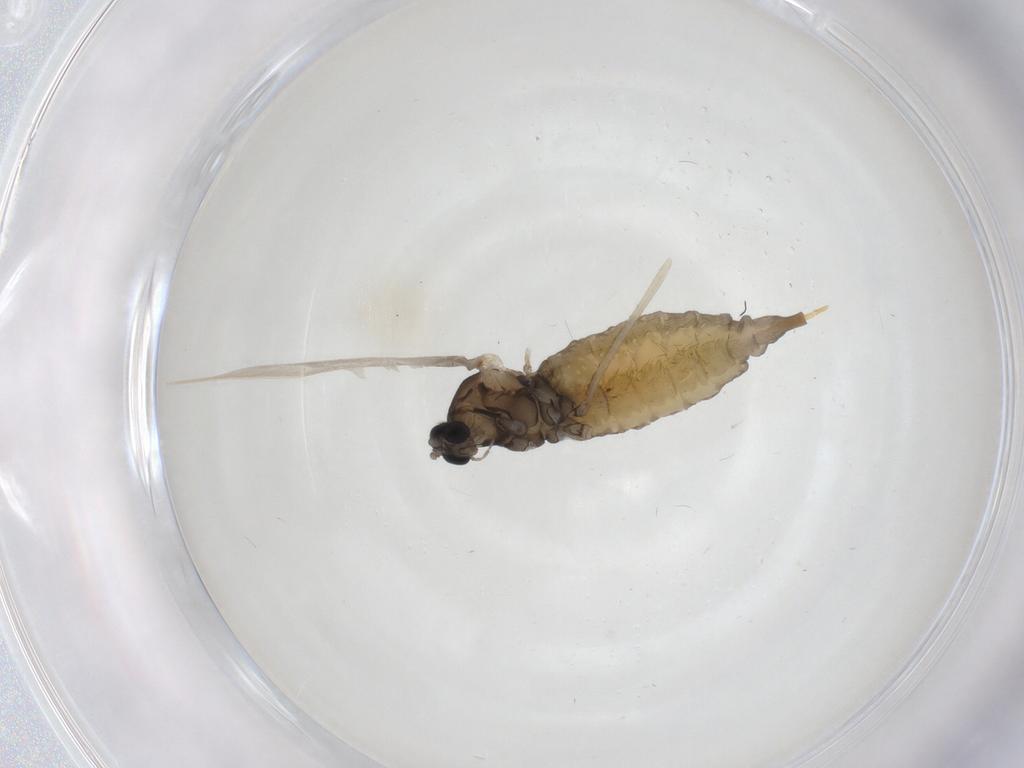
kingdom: Animalia
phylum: Arthropoda
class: Insecta
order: Diptera
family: Cecidomyiidae
